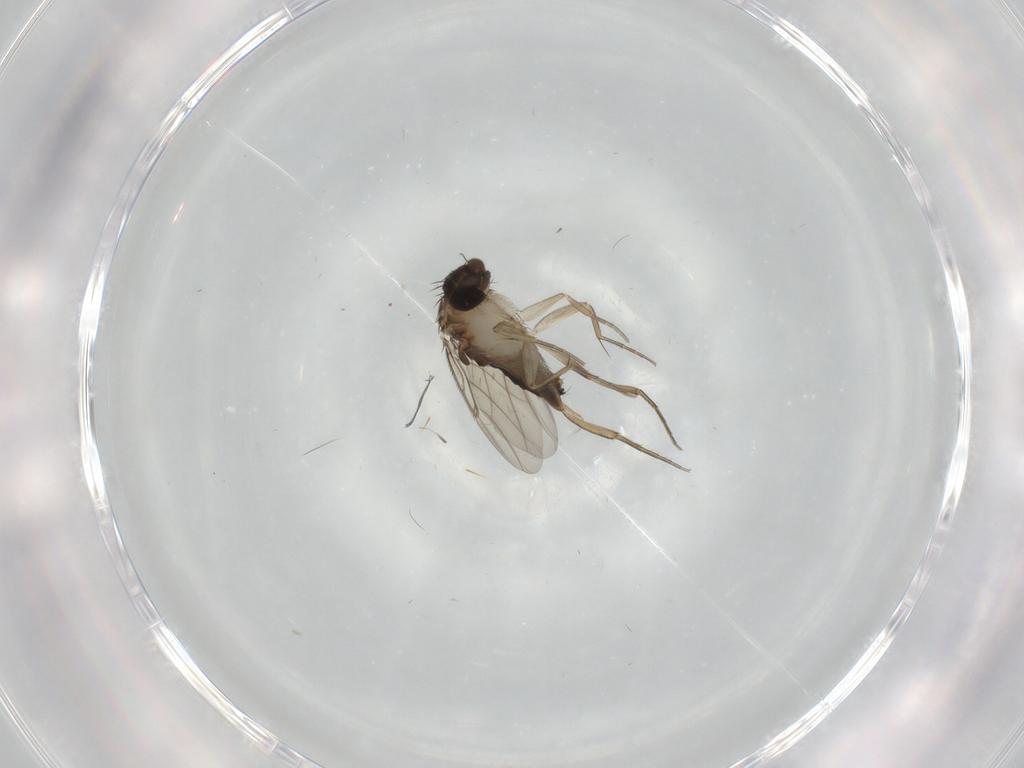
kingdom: Animalia
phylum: Arthropoda
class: Insecta
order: Diptera
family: Phoridae
